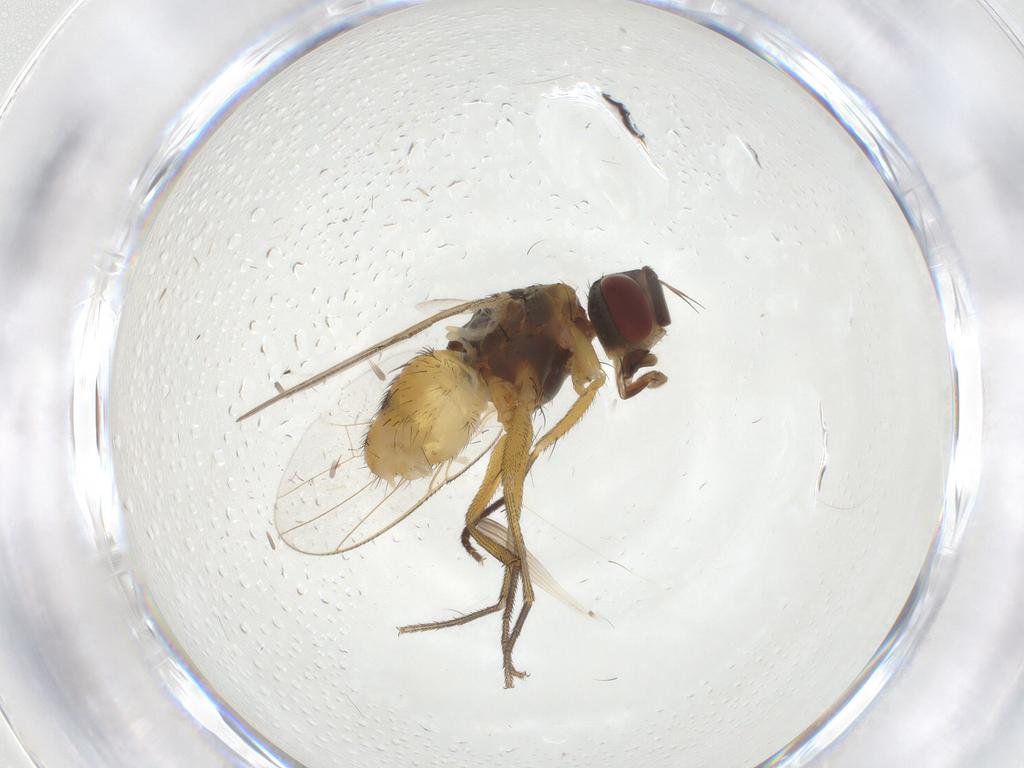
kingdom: Animalia
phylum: Arthropoda
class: Insecta
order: Diptera
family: Muscidae
